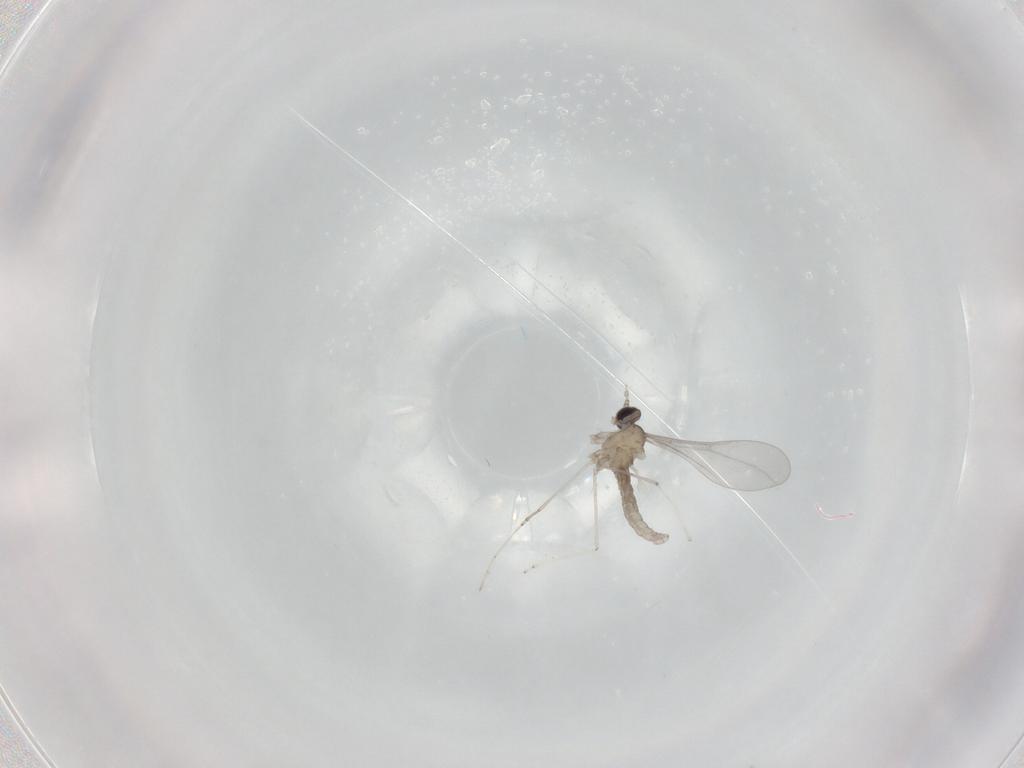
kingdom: Animalia
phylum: Arthropoda
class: Insecta
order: Diptera
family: Cecidomyiidae
